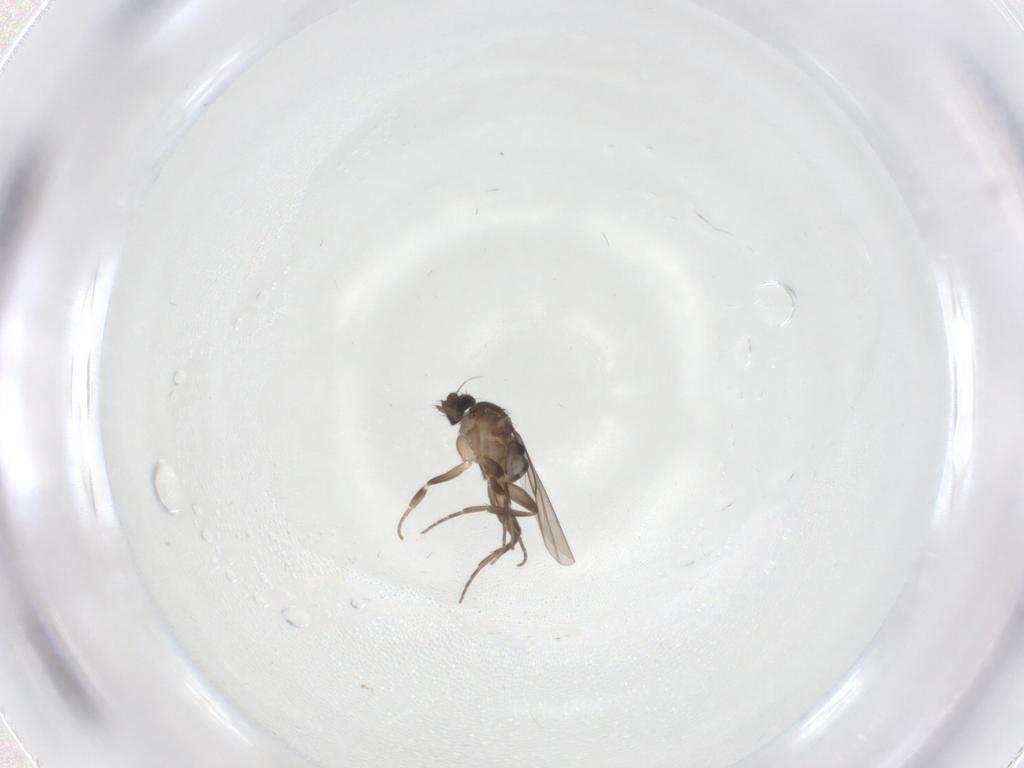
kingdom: Animalia
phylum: Arthropoda
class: Insecta
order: Diptera
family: Phoridae
